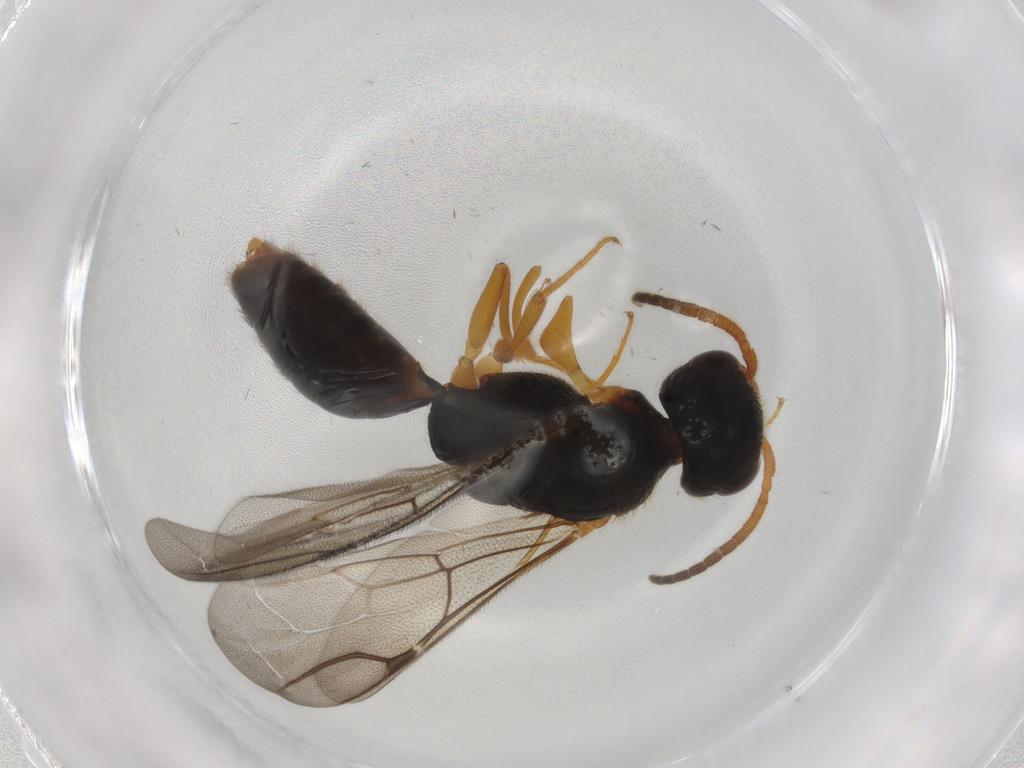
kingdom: Animalia
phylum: Arthropoda
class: Insecta
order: Hymenoptera
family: Bethylidae
